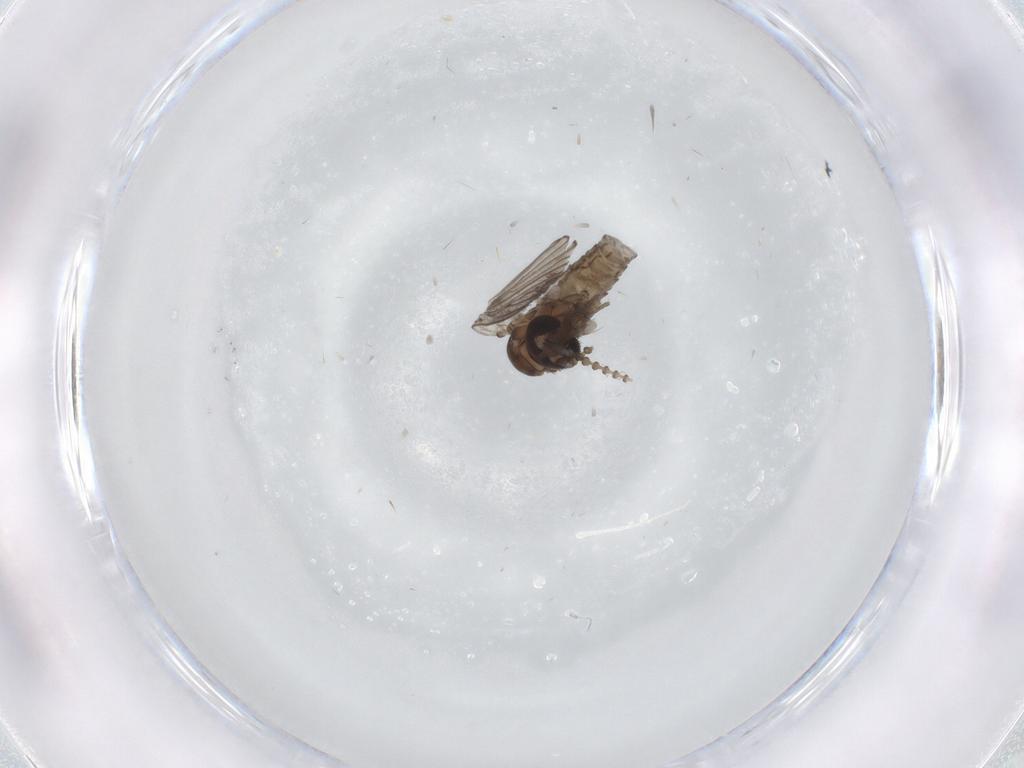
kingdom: Animalia
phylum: Arthropoda
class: Insecta
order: Diptera
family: Psychodidae
